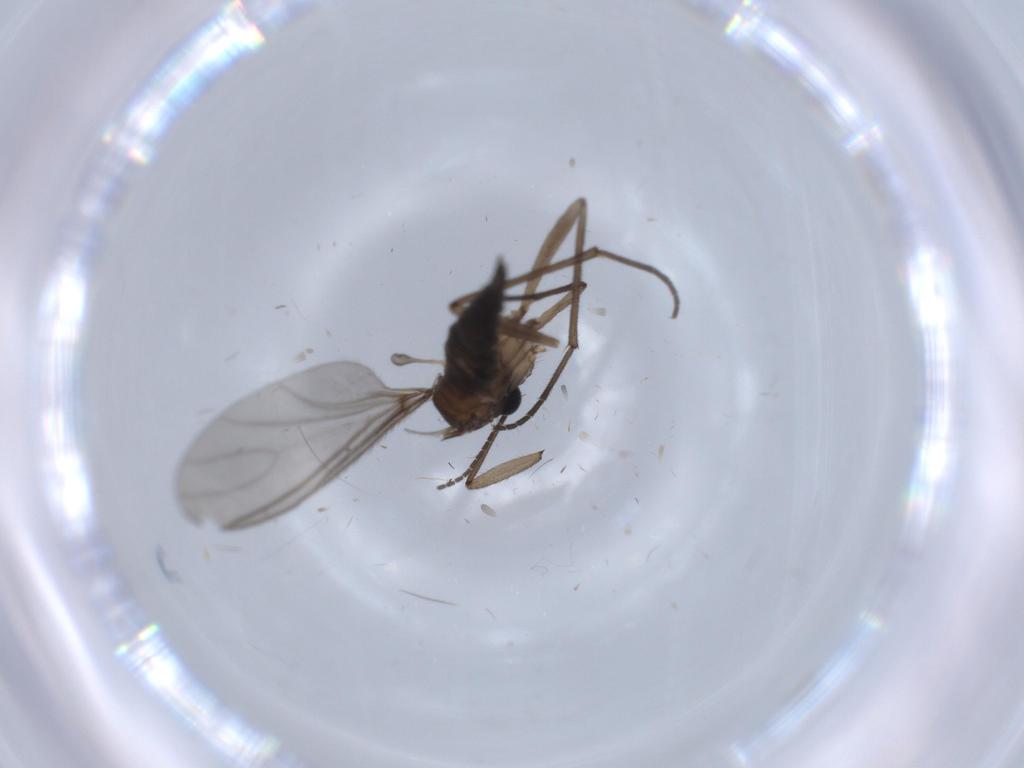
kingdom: Animalia
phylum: Arthropoda
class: Insecta
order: Diptera
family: Sciaridae
